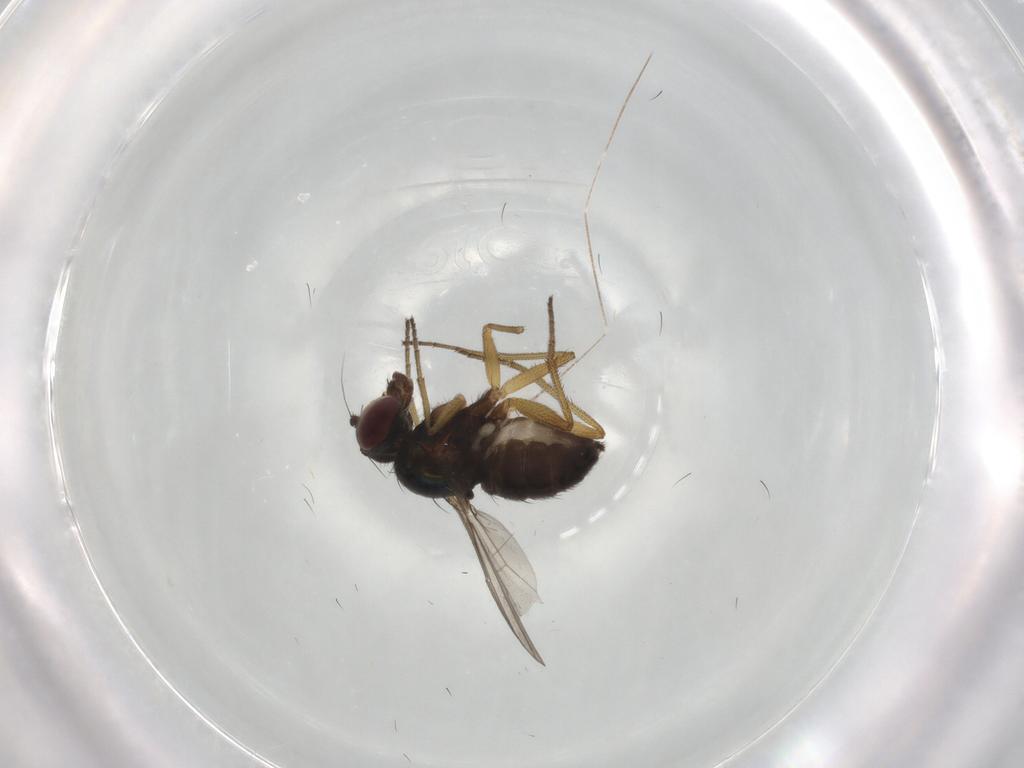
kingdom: Animalia
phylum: Arthropoda
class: Insecta
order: Diptera
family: Dolichopodidae
